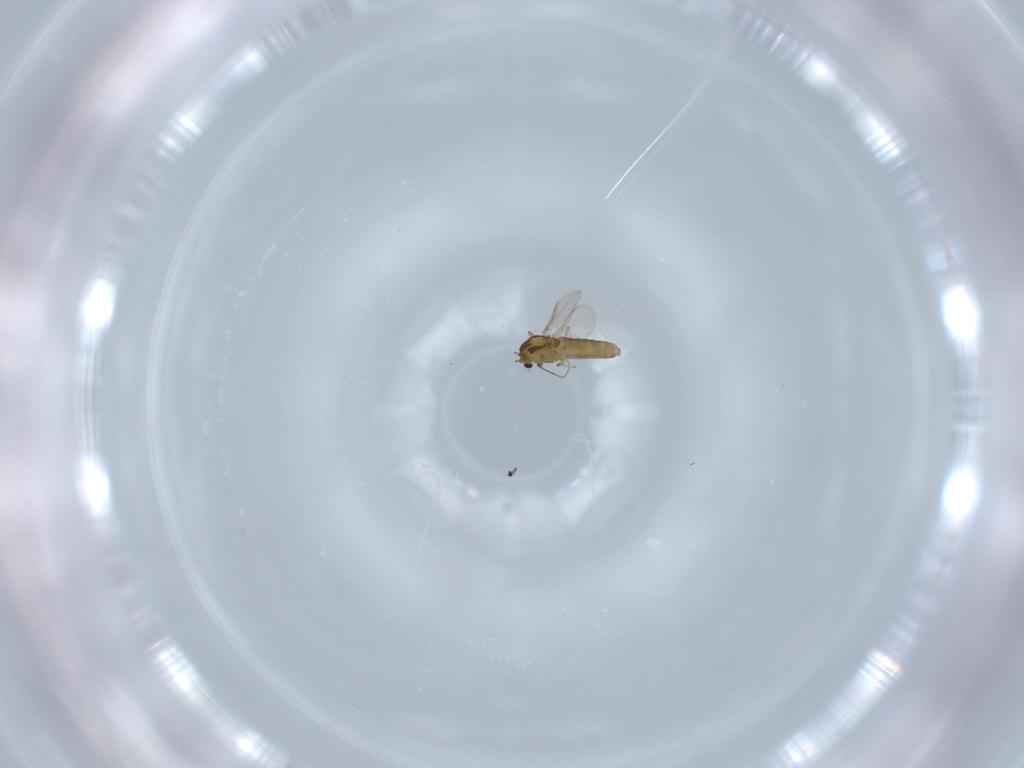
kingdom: Animalia
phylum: Arthropoda
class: Insecta
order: Diptera
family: Chironomidae
